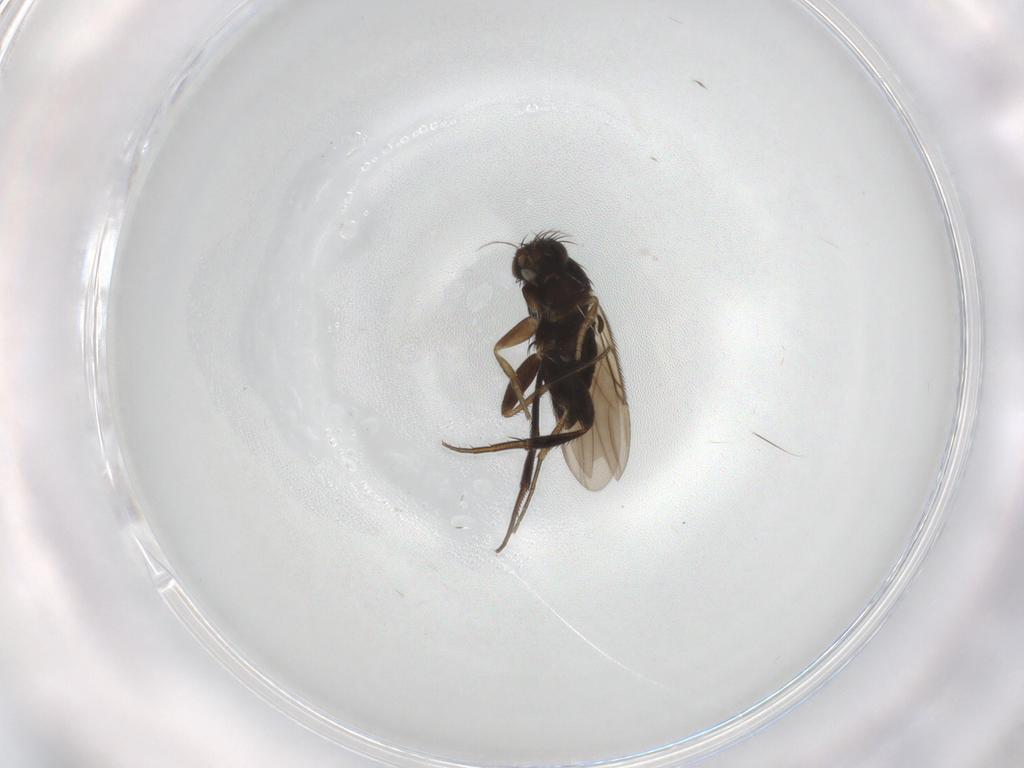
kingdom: Animalia
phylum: Arthropoda
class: Insecta
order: Diptera
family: Phoridae
